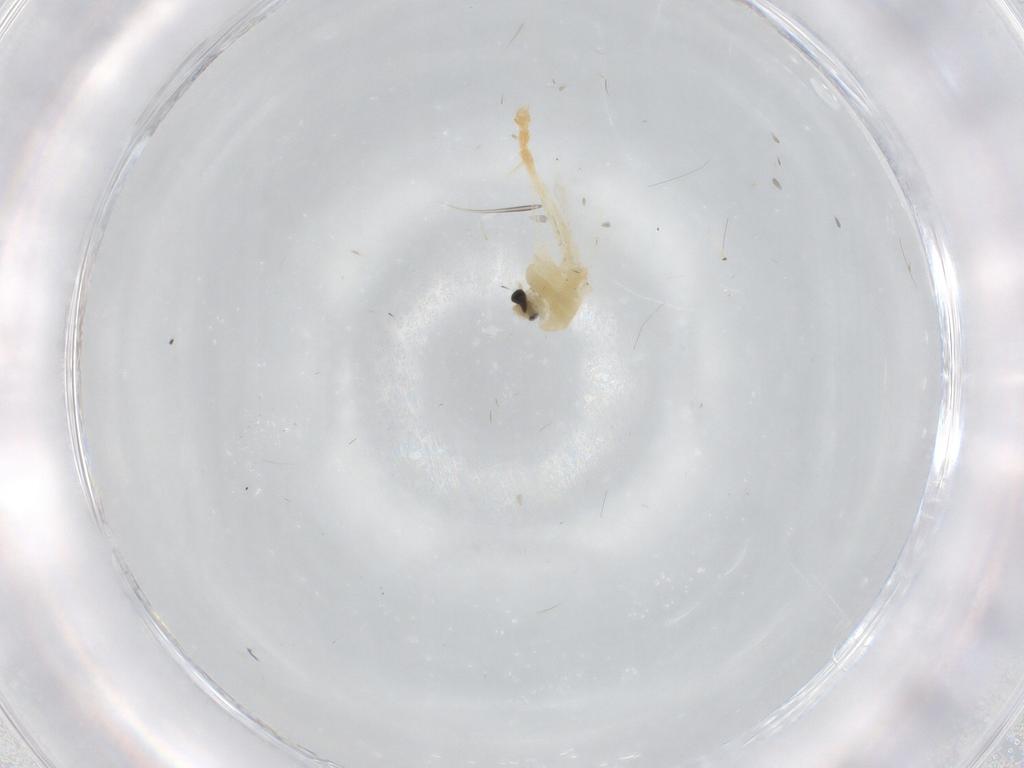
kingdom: Animalia
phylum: Arthropoda
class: Insecta
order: Diptera
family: Chironomidae
